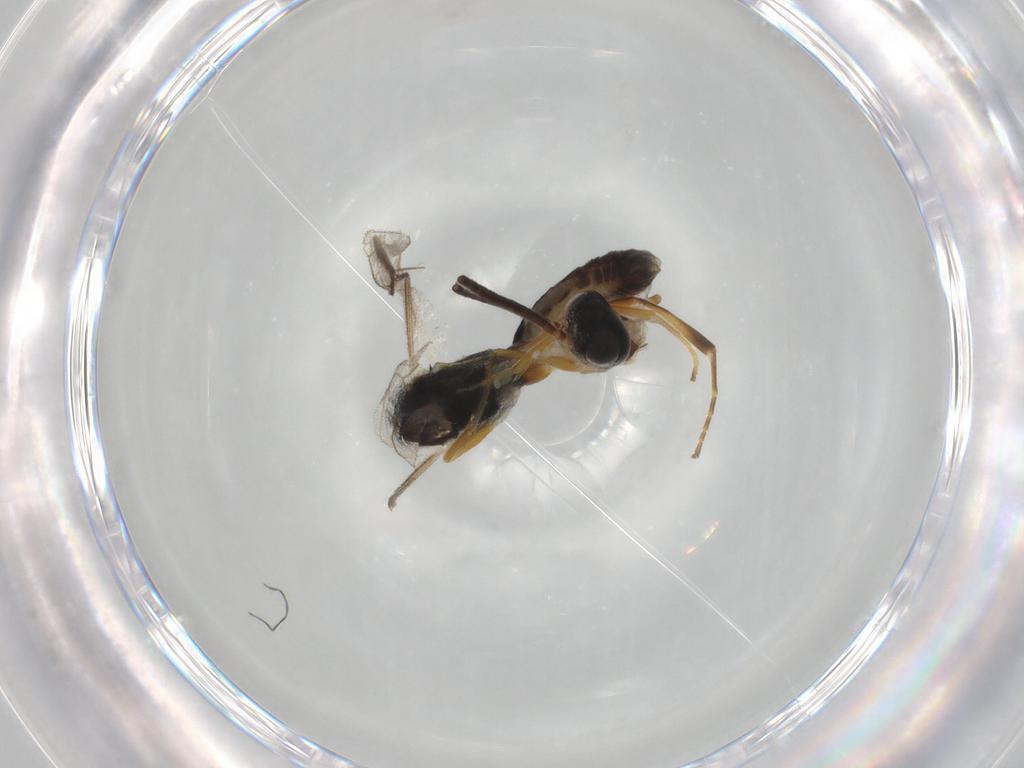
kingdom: Animalia
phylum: Arthropoda
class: Insecta
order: Hymenoptera
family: Ichneumonidae
